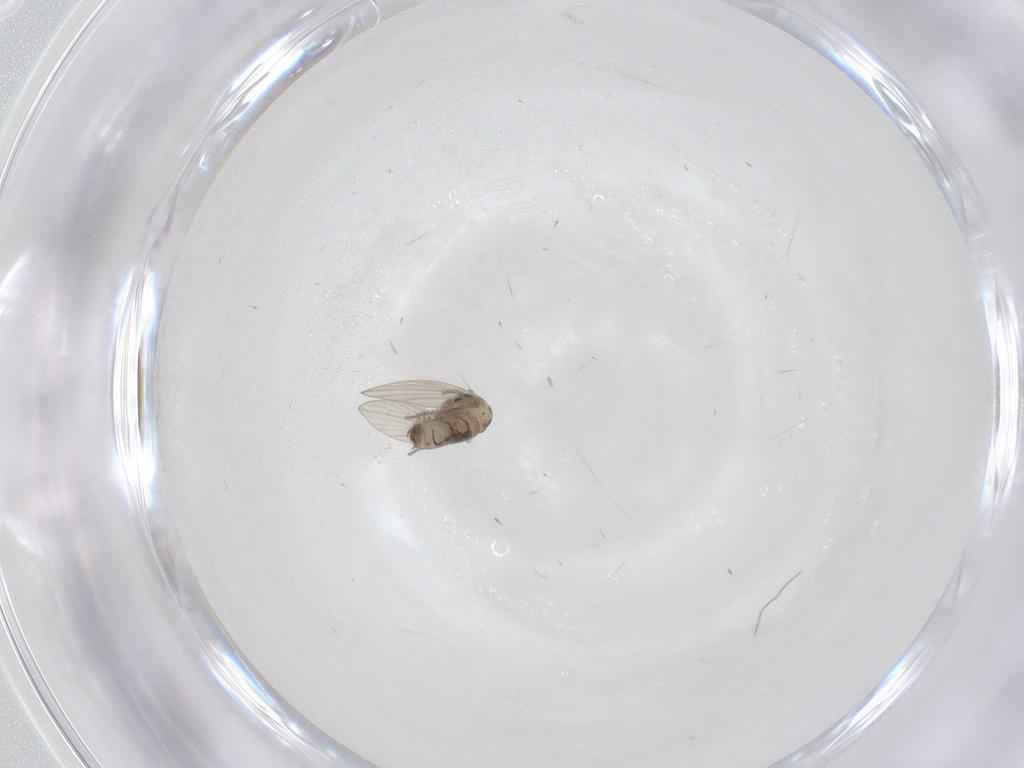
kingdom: Animalia
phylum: Arthropoda
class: Insecta
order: Diptera
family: Psychodidae
